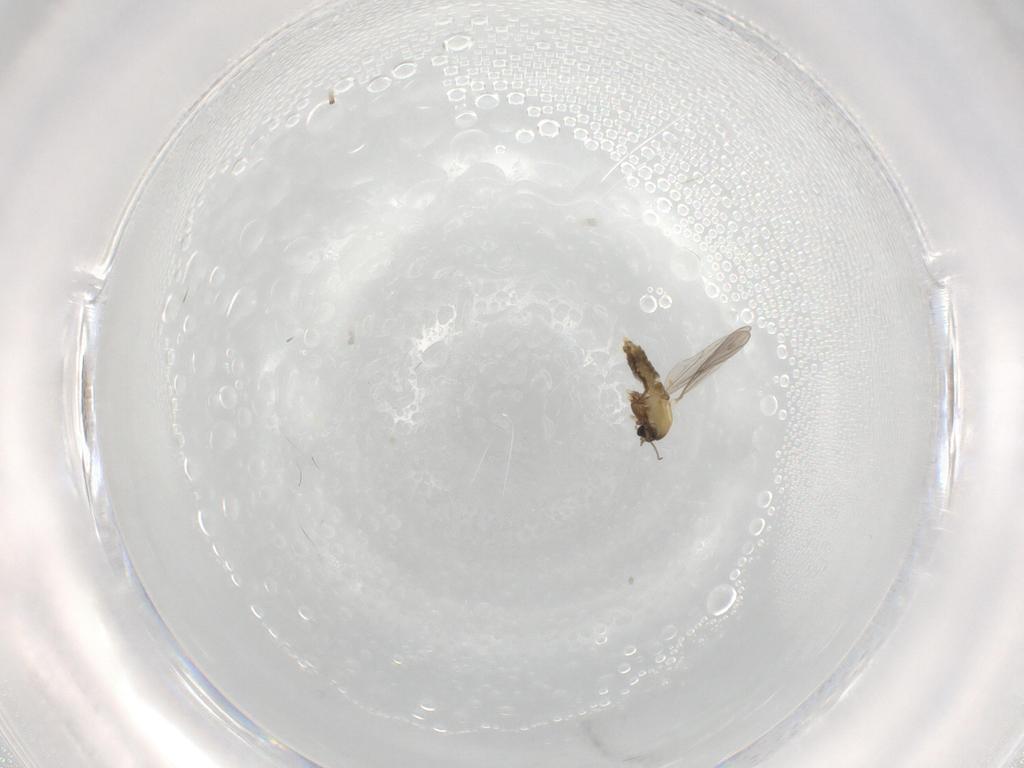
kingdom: Animalia
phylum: Arthropoda
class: Insecta
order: Diptera
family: Chironomidae
